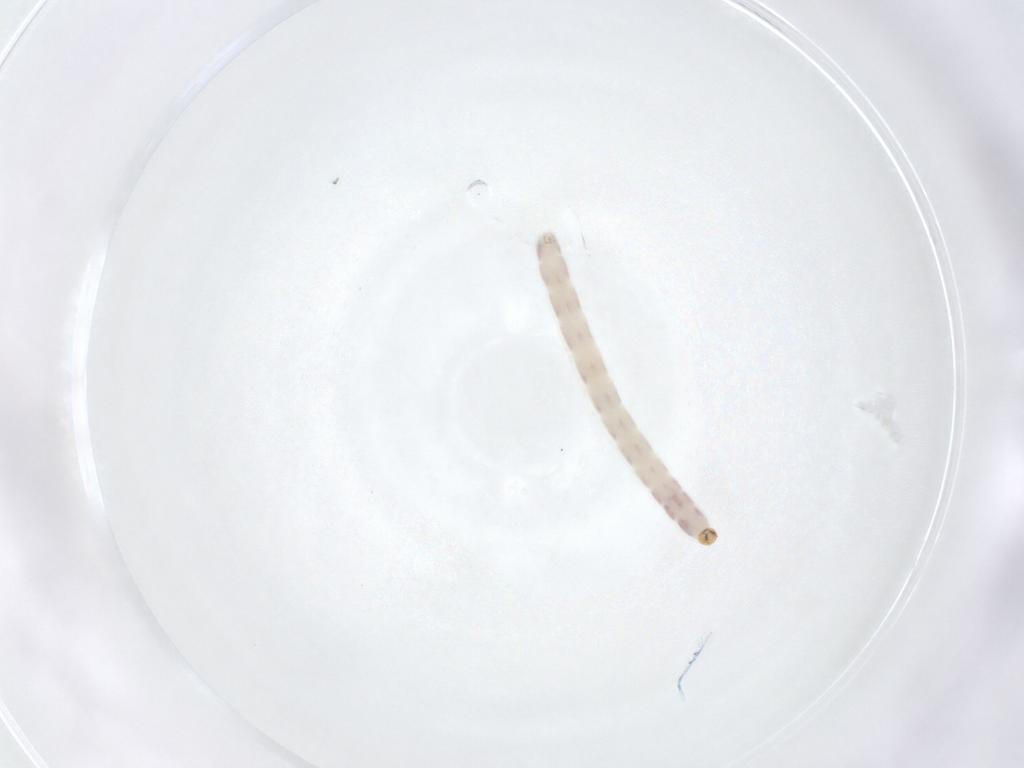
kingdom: Animalia
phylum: Arthropoda
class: Insecta
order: Diptera
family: Chironomidae
